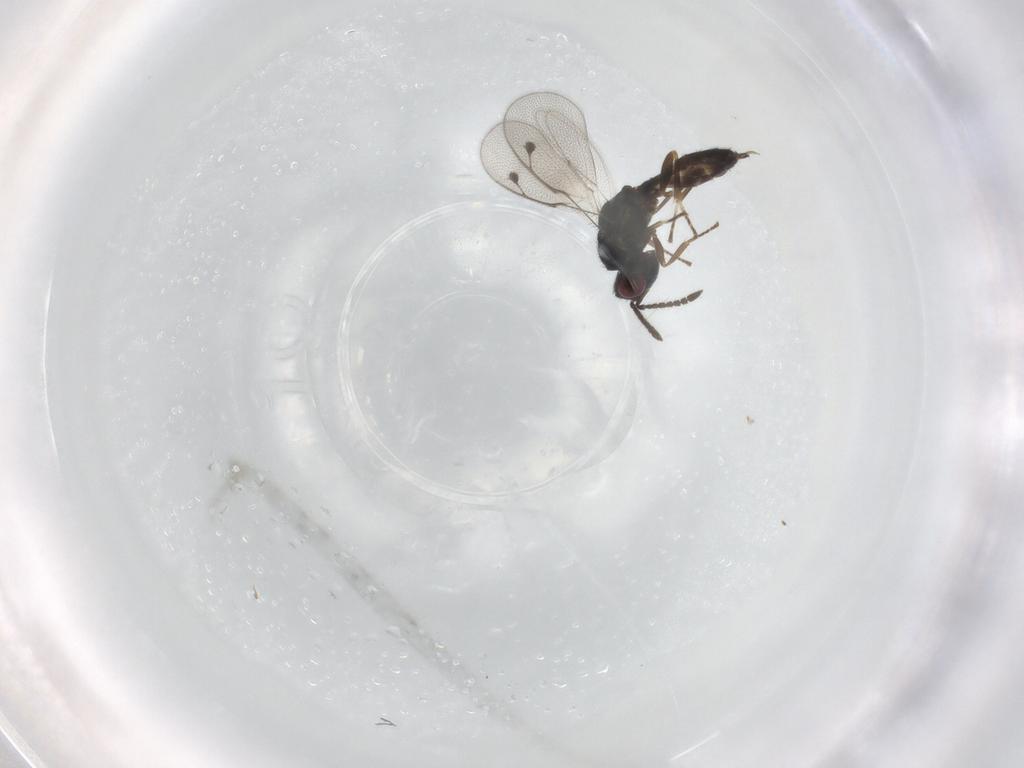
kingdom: Animalia
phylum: Arthropoda
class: Insecta
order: Hymenoptera
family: Pteromalidae
